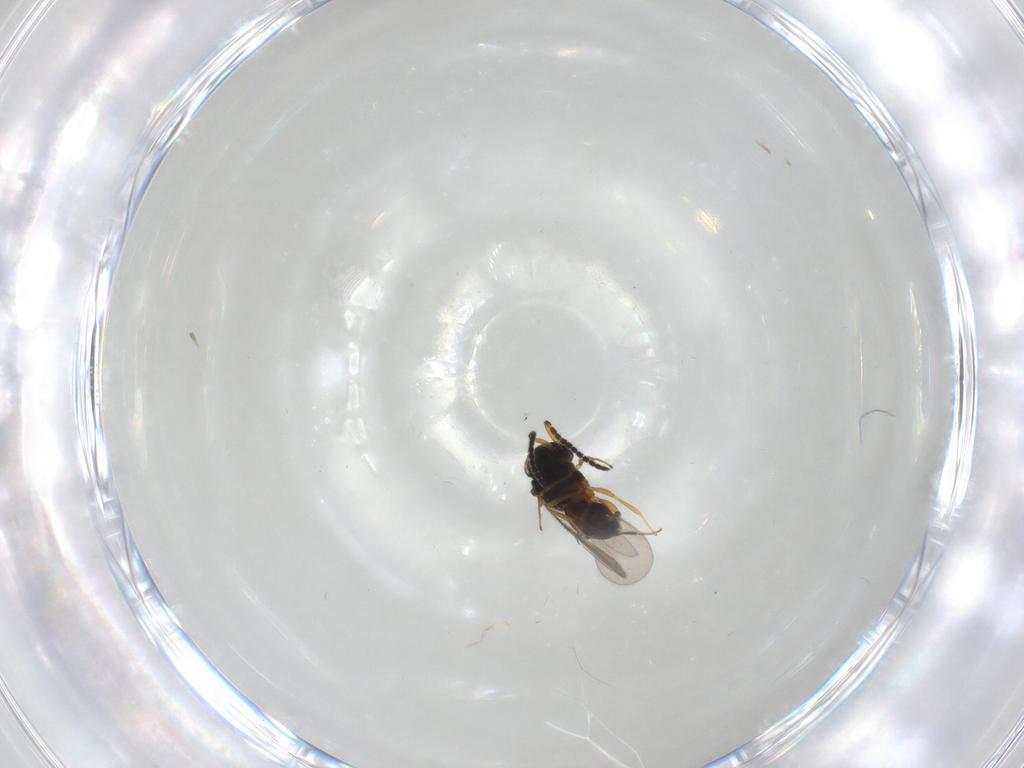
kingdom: Animalia
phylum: Arthropoda
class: Insecta
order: Hymenoptera
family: Scelionidae
